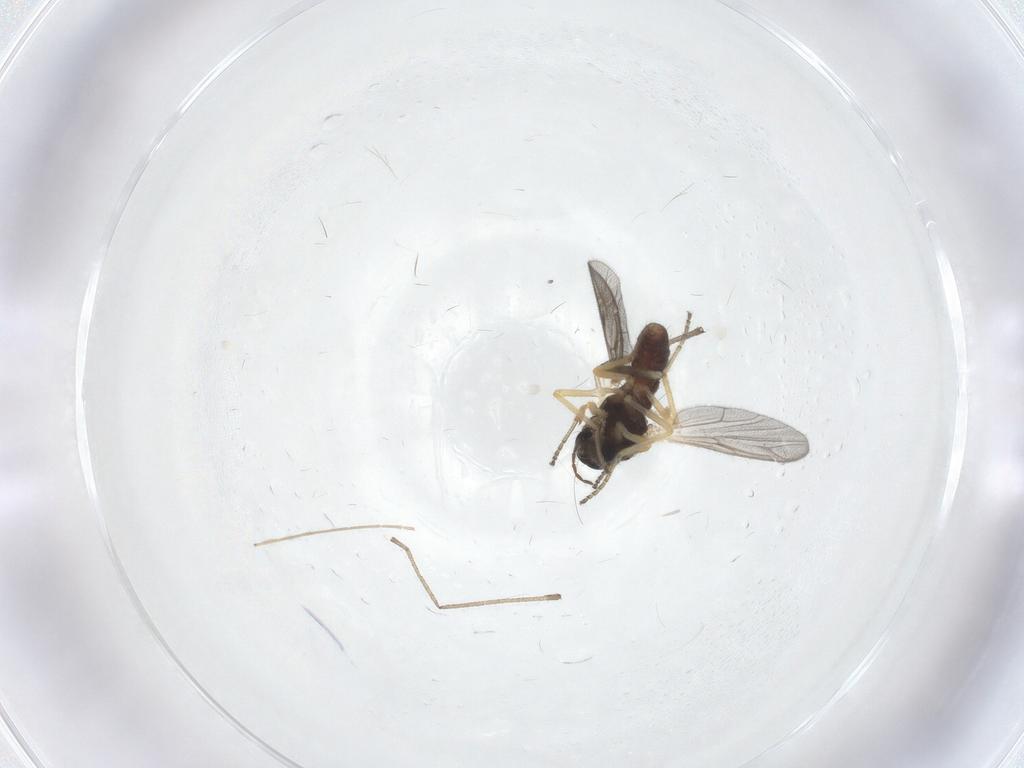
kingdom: Animalia
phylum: Arthropoda
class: Insecta
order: Diptera
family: Ceratopogonidae
